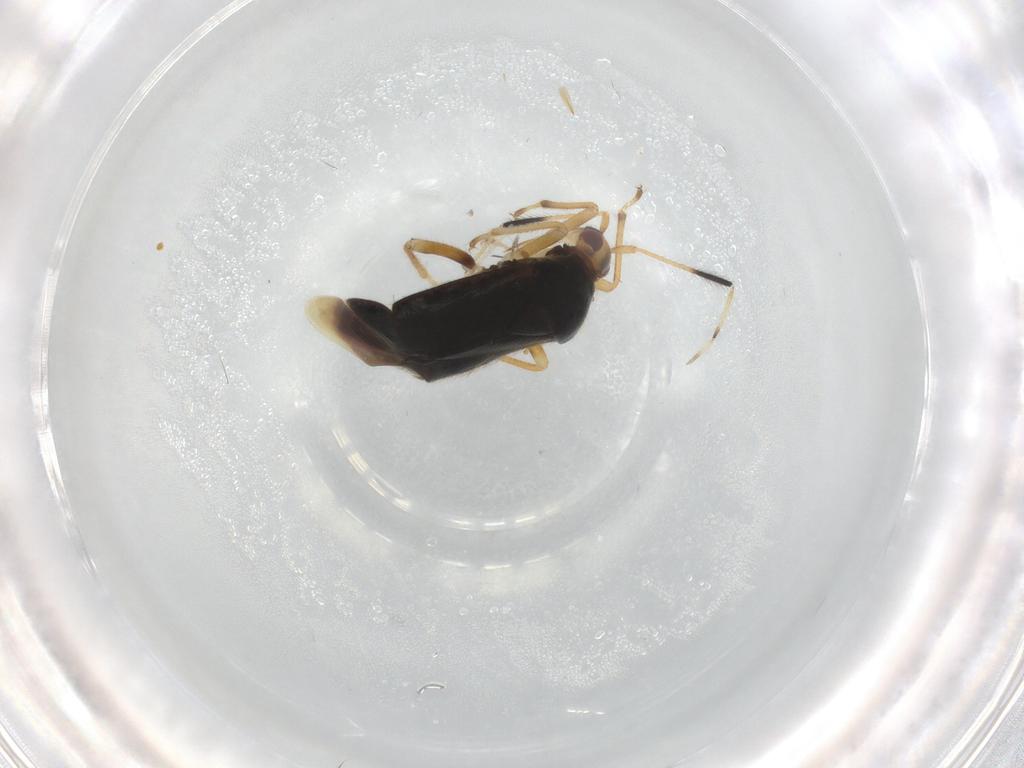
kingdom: Animalia
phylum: Arthropoda
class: Insecta
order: Hemiptera
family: Miridae
